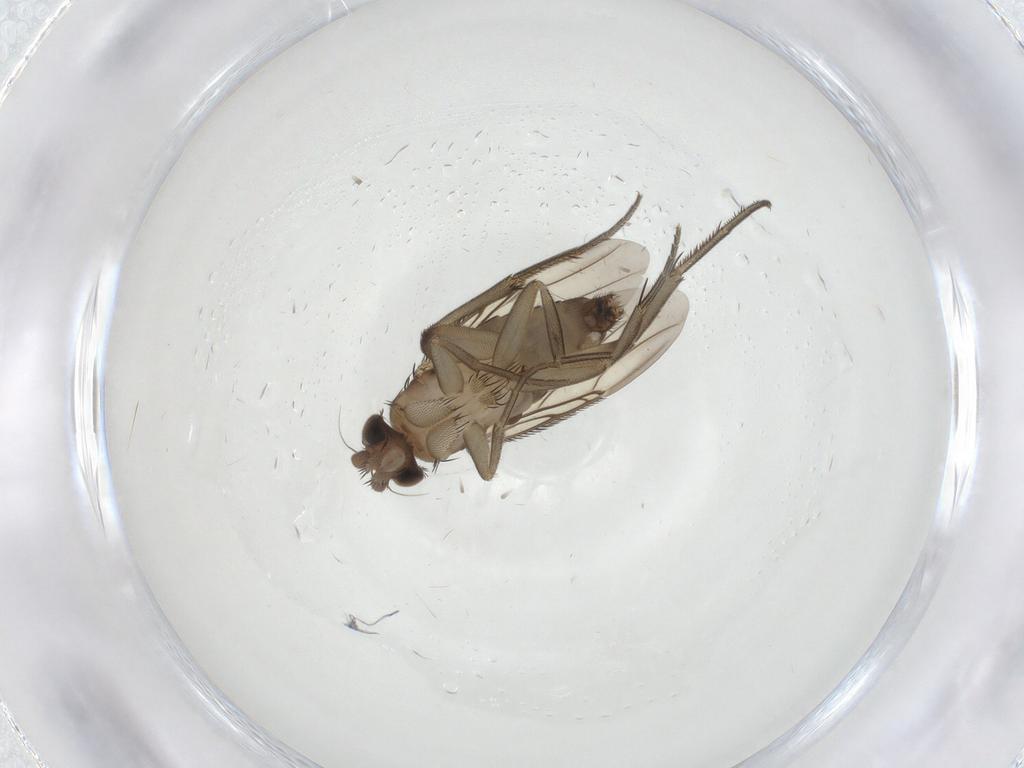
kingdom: Animalia
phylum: Arthropoda
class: Insecta
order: Diptera
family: Phoridae
